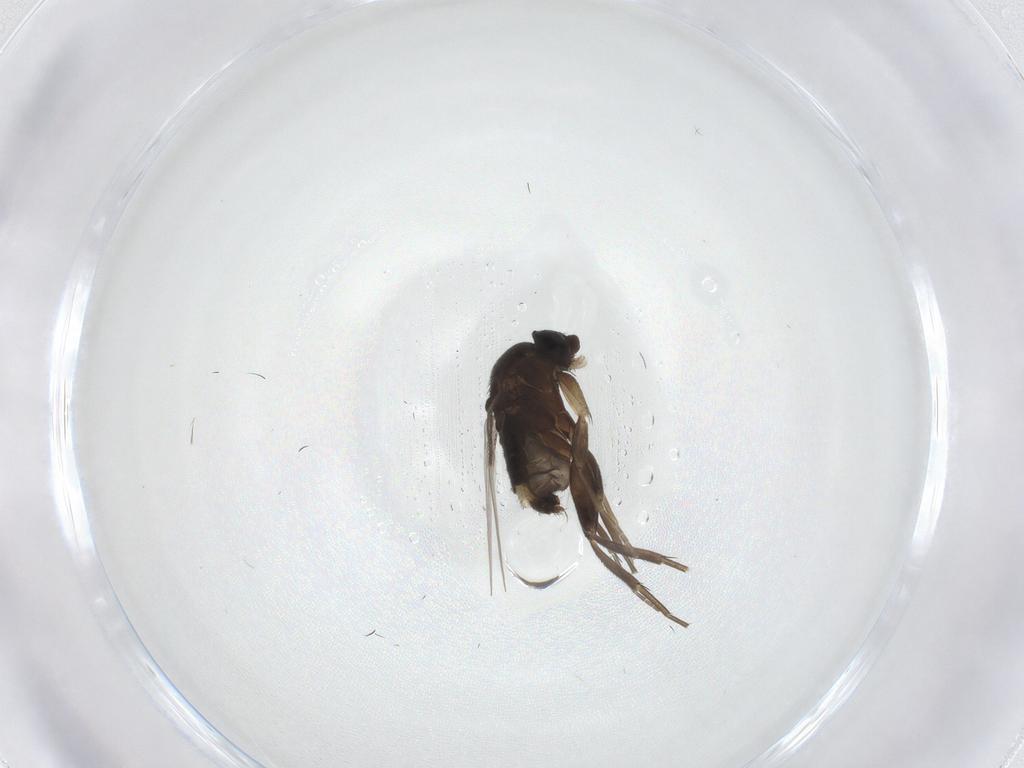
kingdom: Animalia
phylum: Arthropoda
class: Insecta
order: Diptera
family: Phoridae
